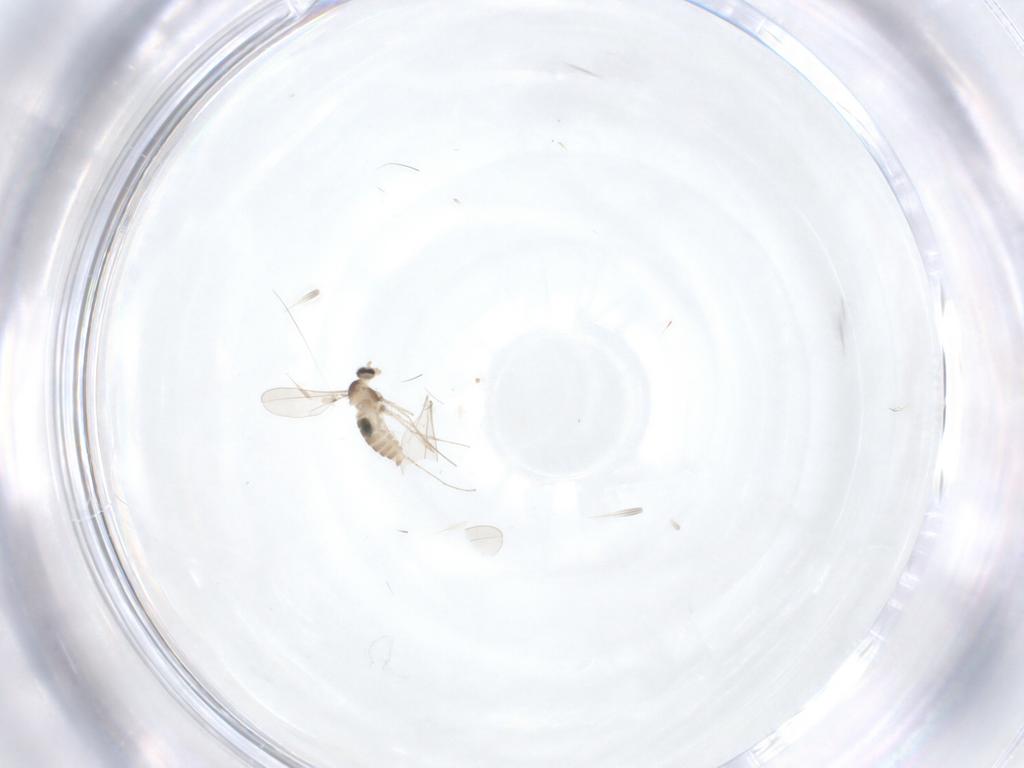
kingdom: Animalia
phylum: Arthropoda
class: Insecta
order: Diptera
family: Cecidomyiidae
